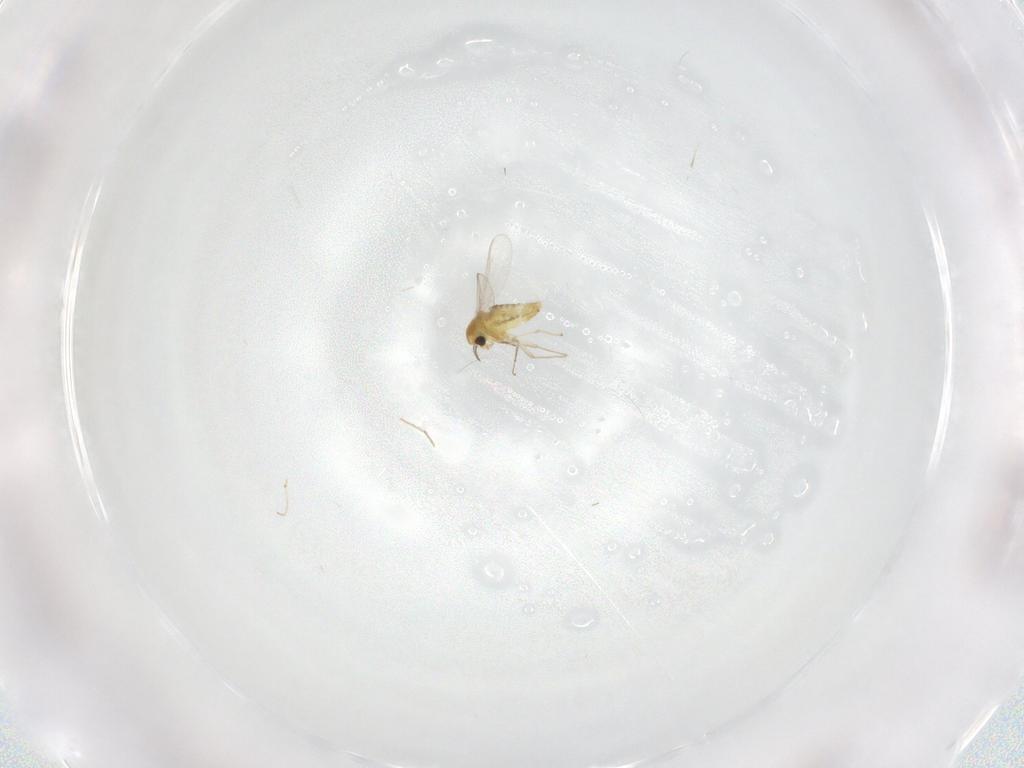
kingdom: Animalia
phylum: Arthropoda
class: Insecta
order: Diptera
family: Chironomidae
